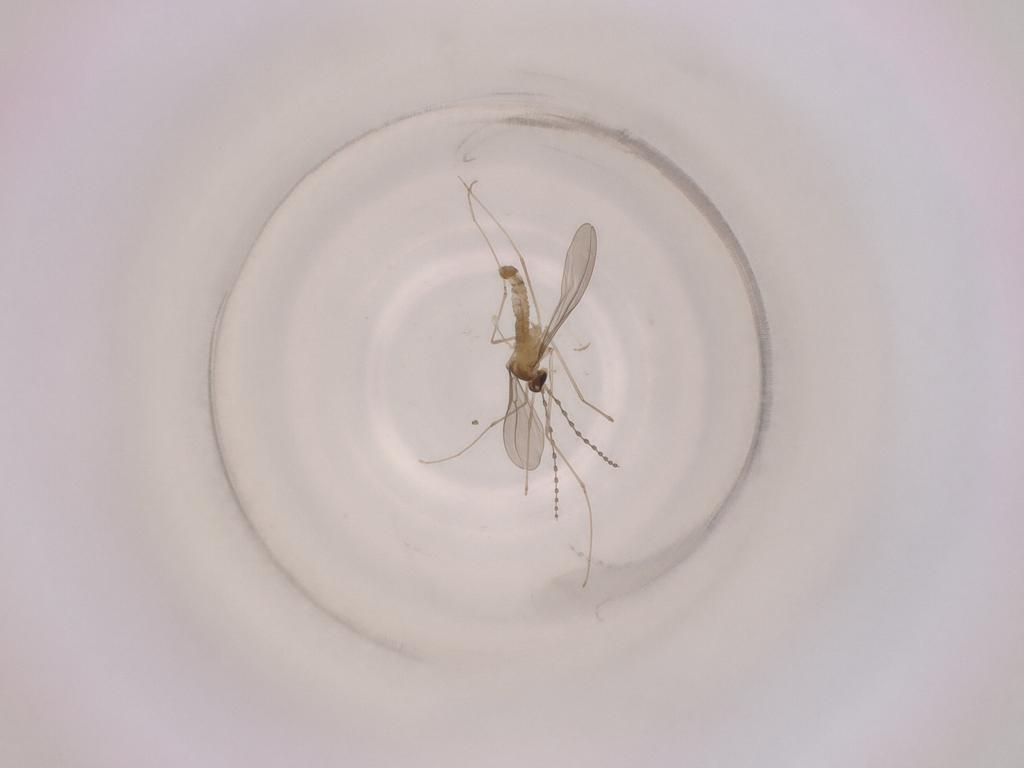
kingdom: Animalia
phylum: Arthropoda
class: Insecta
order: Diptera
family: Cecidomyiidae
